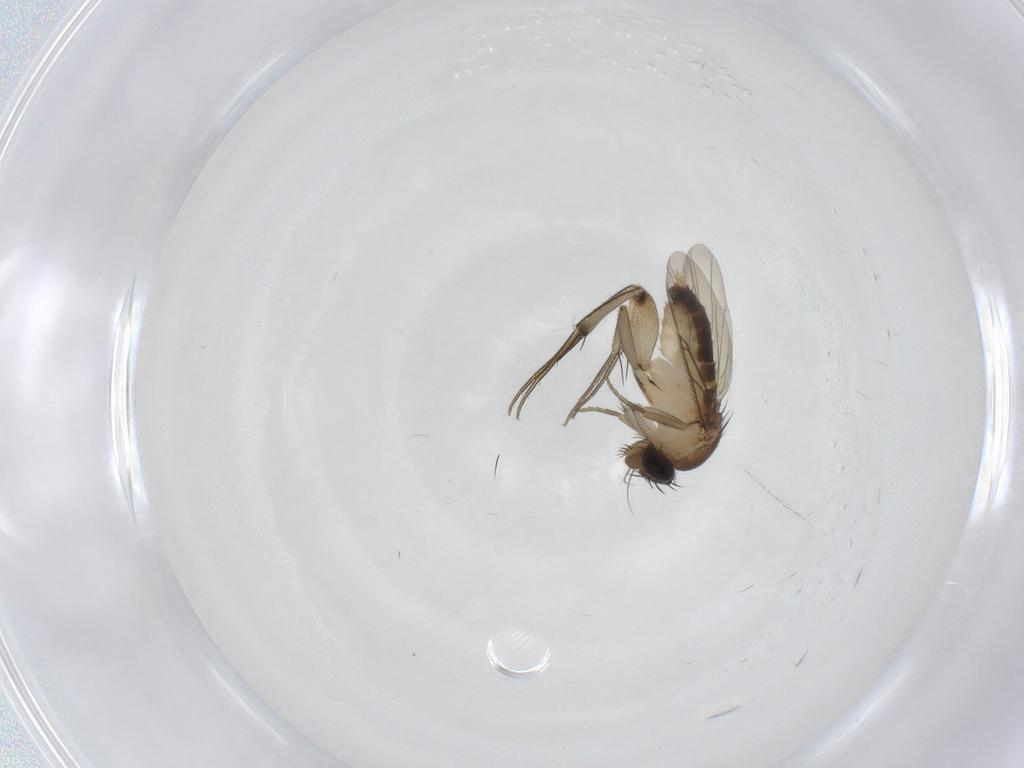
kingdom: Animalia
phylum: Arthropoda
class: Insecta
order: Diptera
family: Phoridae
